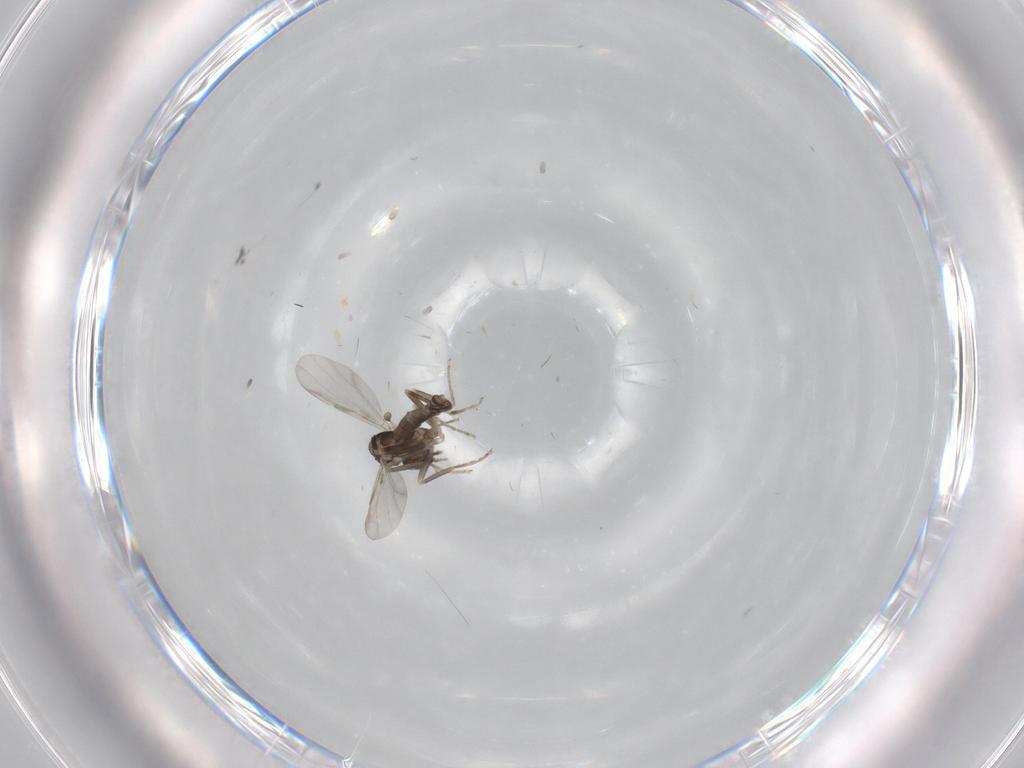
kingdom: Animalia
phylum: Arthropoda
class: Insecta
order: Diptera
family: Ceratopogonidae
